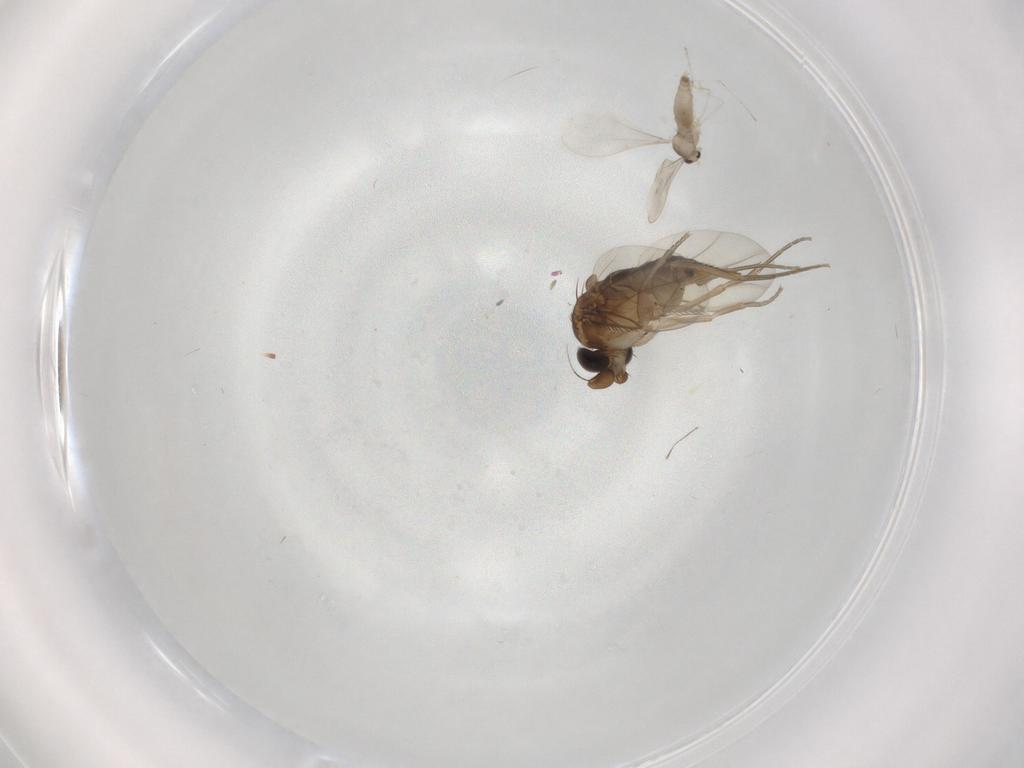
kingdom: Animalia
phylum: Arthropoda
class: Insecta
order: Diptera
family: Phoridae
